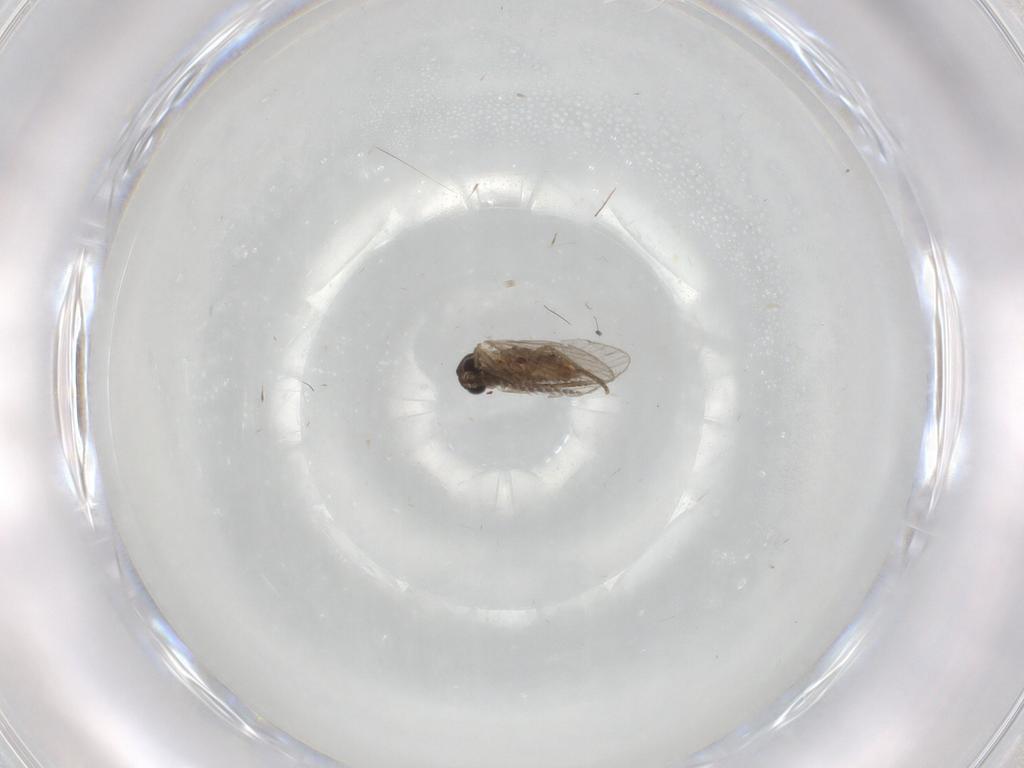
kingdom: Animalia
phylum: Arthropoda
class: Insecta
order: Diptera
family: Chironomidae
